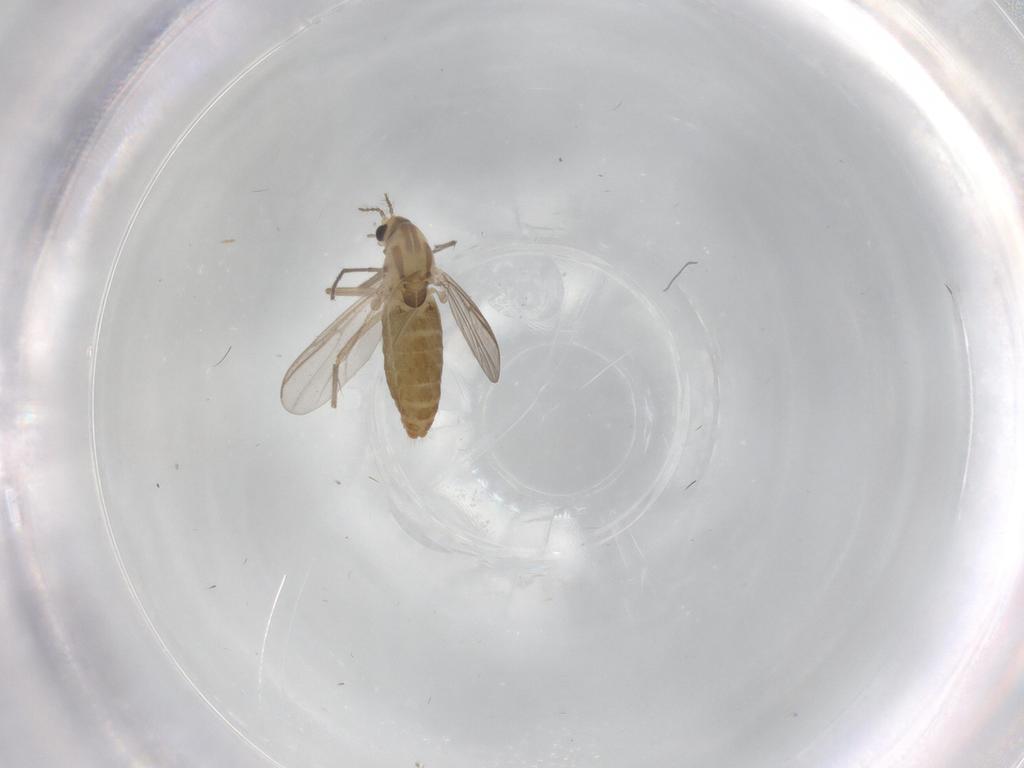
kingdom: Animalia
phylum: Arthropoda
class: Insecta
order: Diptera
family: Chironomidae
